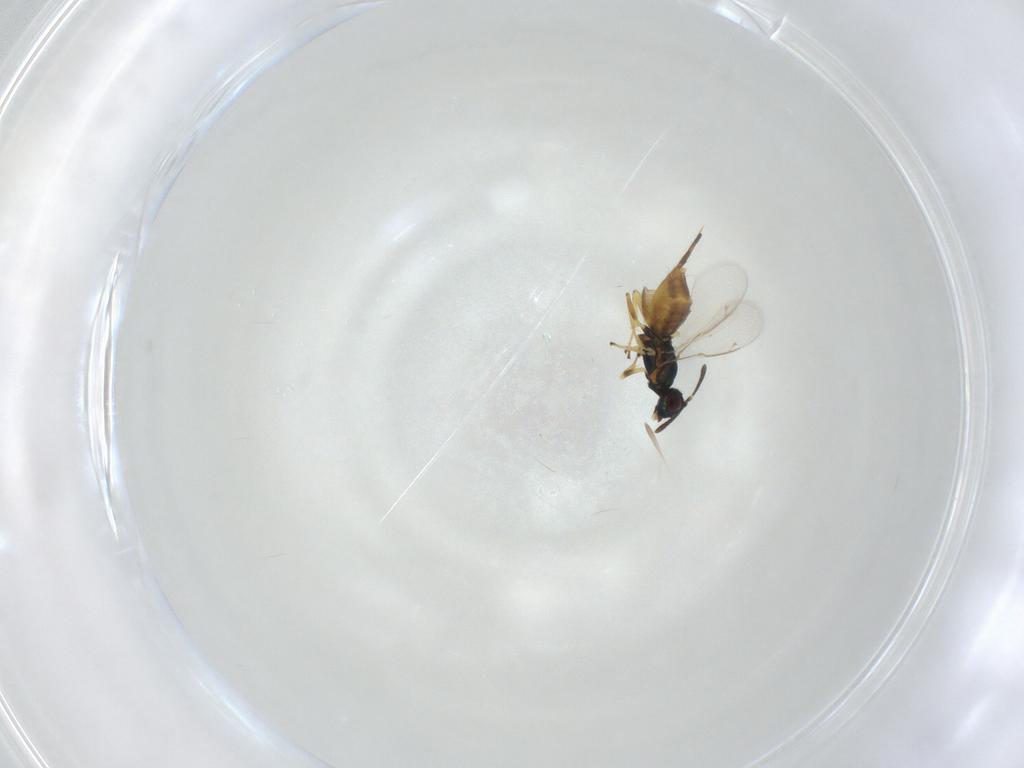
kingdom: Animalia
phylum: Arthropoda
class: Insecta
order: Hymenoptera
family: Eupelmidae
